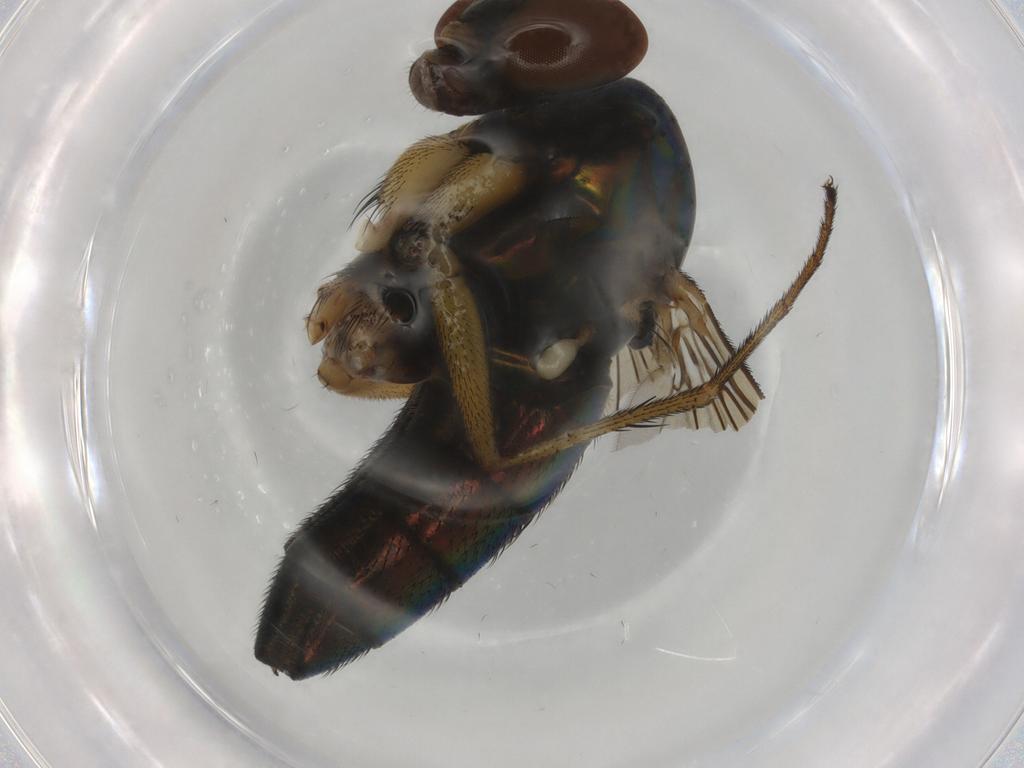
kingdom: Animalia
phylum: Arthropoda
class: Insecta
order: Diptera
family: Dolichopodidae
